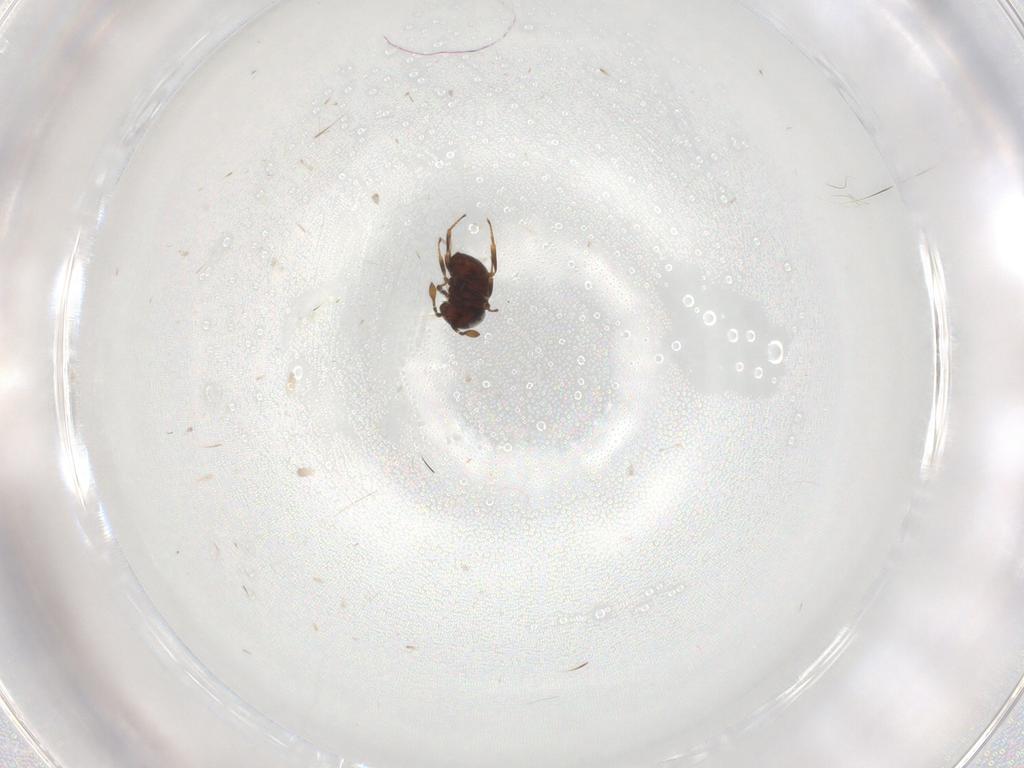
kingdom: Animalia
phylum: Arthropoda
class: Insecta
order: Hymenoptera
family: Scelionidae
